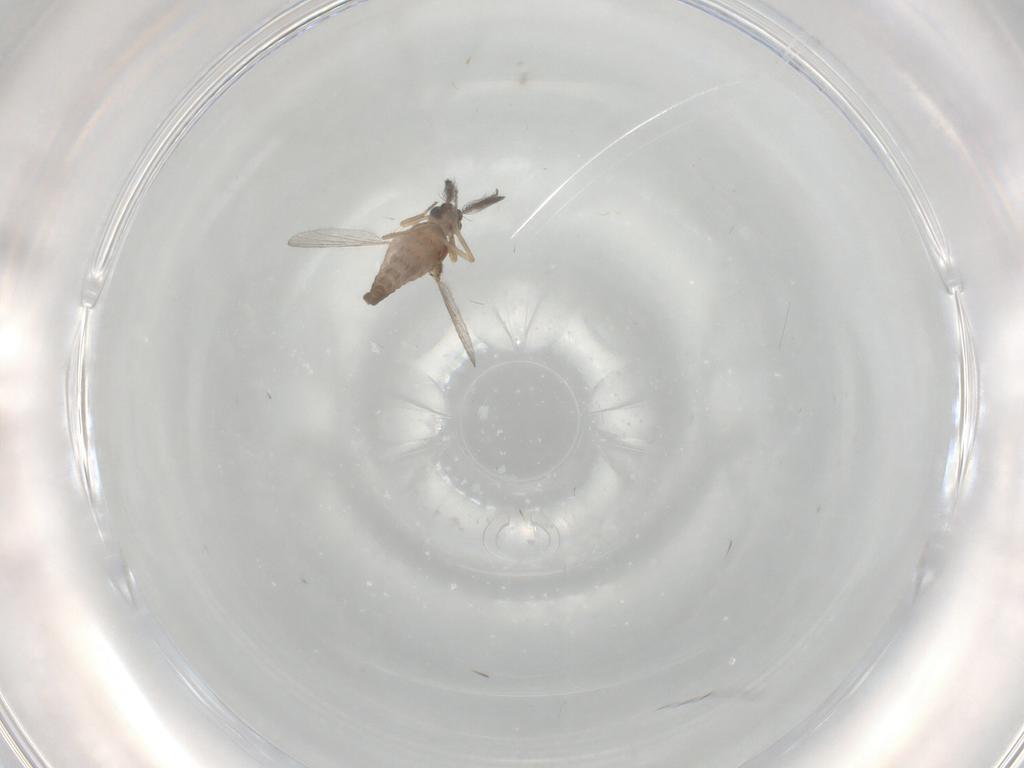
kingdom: Animalia
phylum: Arthropoda
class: Insecta
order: Diptera
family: Ceratopogonidae
